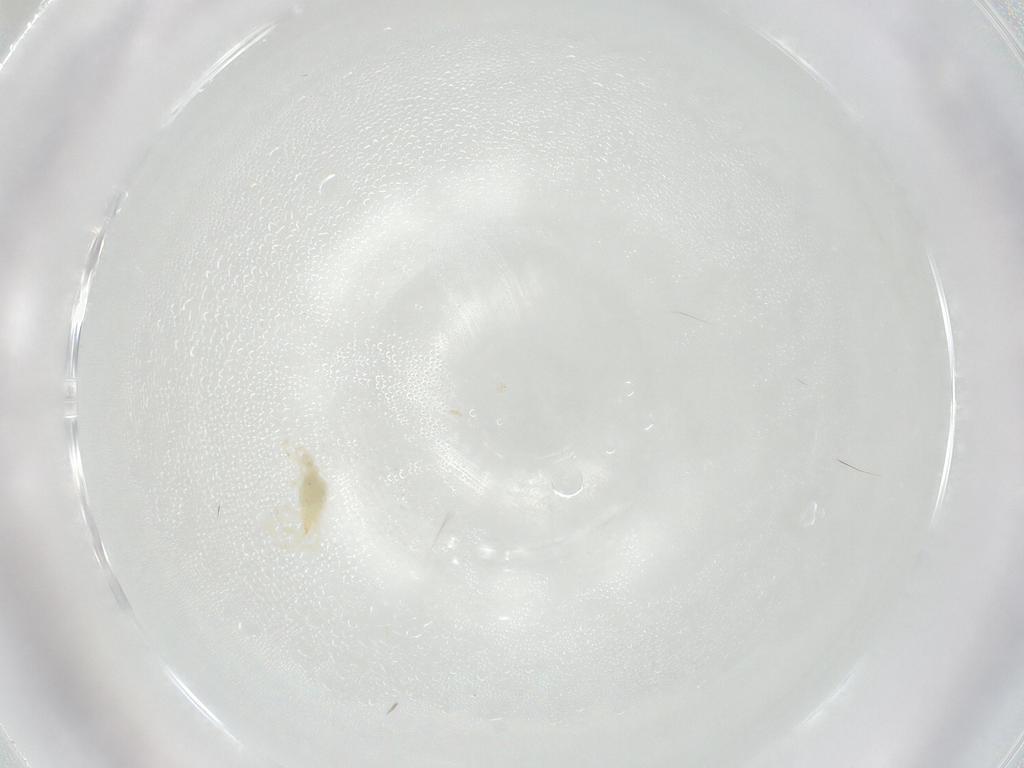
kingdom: Animalia
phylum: Arthropoda
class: Arachnida
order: Trombidiformes
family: Erythraeidae
